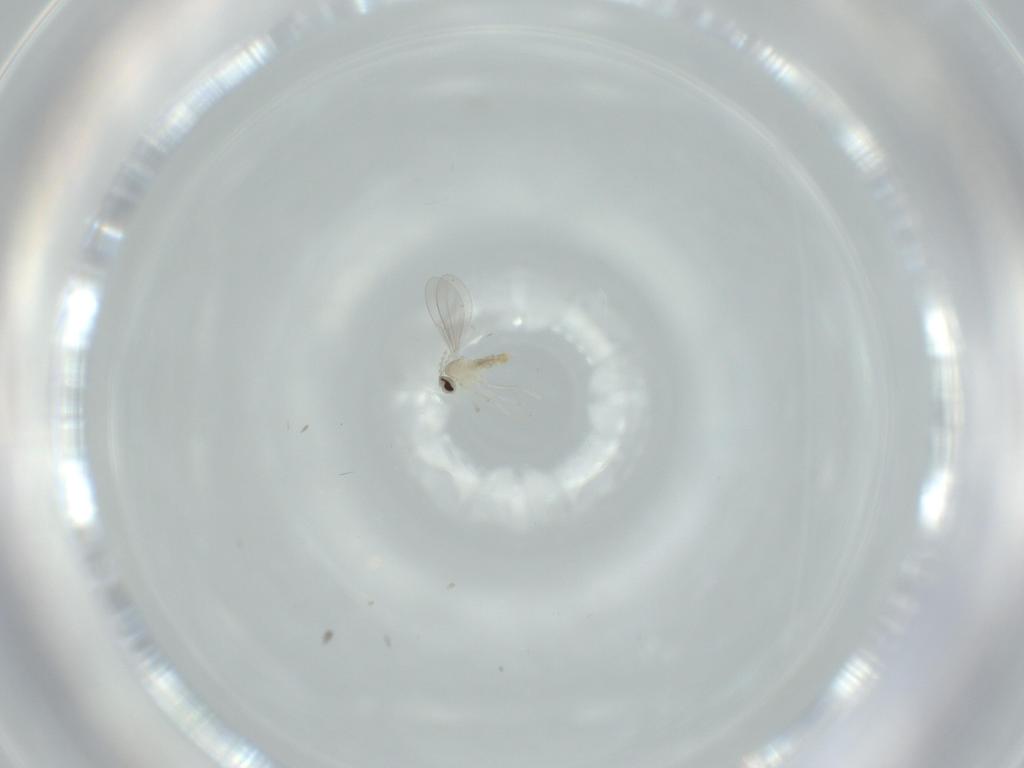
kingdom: Animalia
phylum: Arthropoda
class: Insecta
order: Diptera
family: Cecidomyiidae
